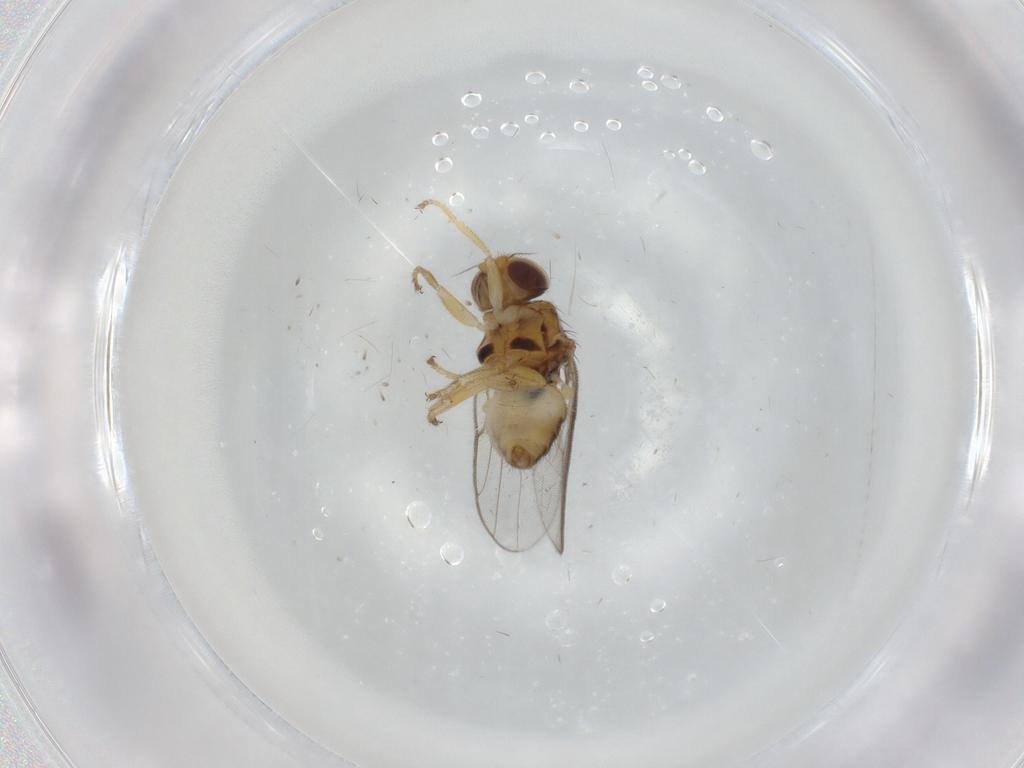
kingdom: Animalia
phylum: Arthropoda
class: Insecta
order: Diptera
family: Chloropidae
